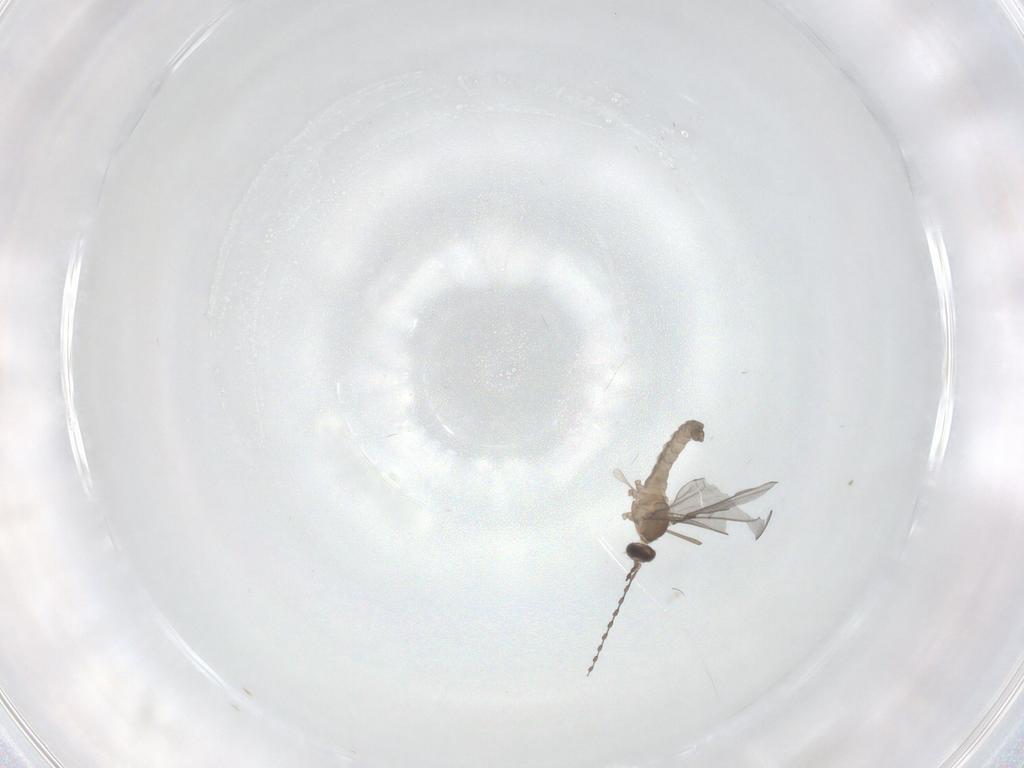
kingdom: Animalia
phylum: Arthropoda
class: Insecta
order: Diptera
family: Cecidomyiidae
